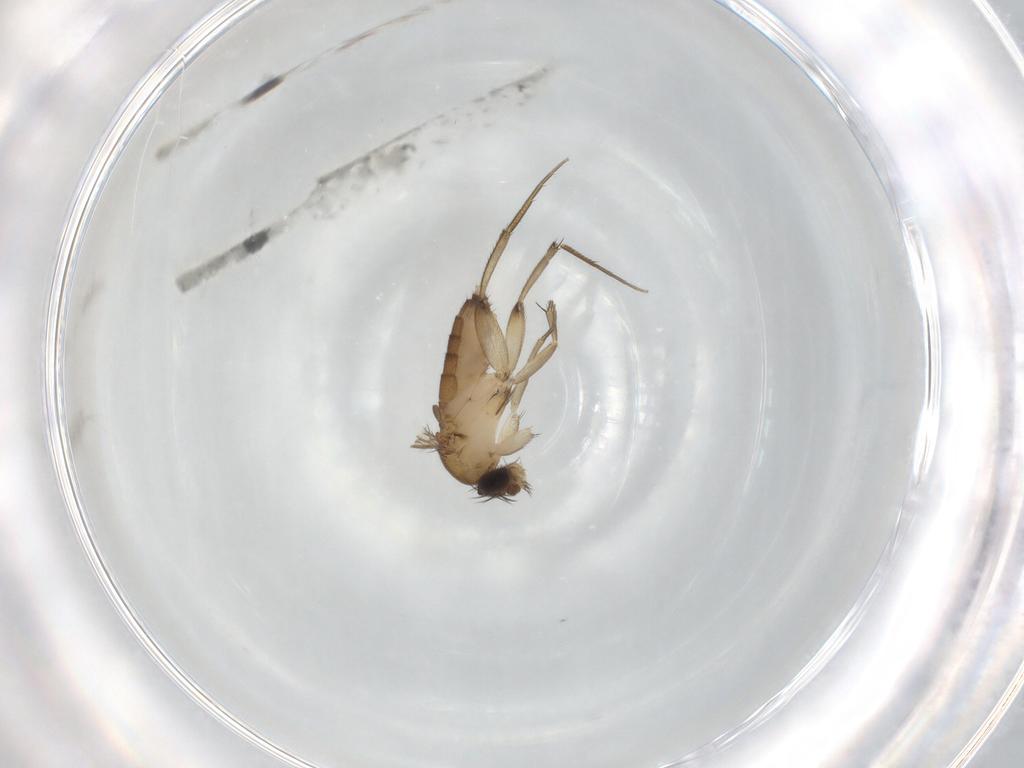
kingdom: Animalia
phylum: Arthropoda
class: Insecta
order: Diptera
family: Phoridae
